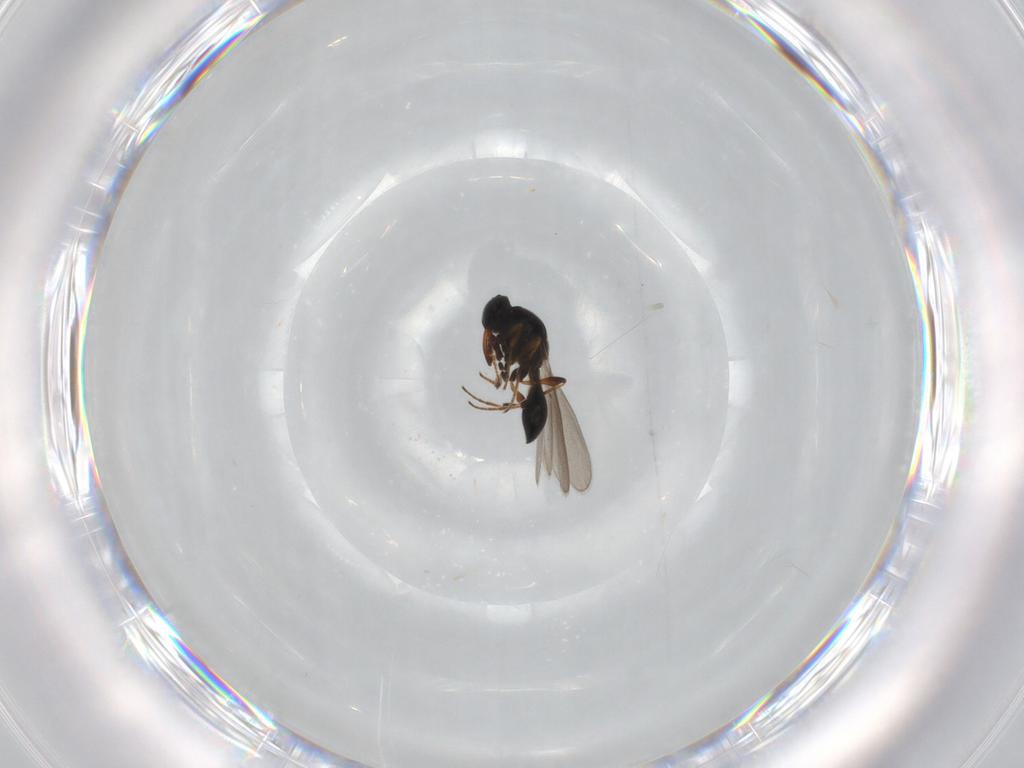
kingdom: Animalia
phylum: Arthropoda
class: Insecta
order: Hymenoptera
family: Platygastridae
